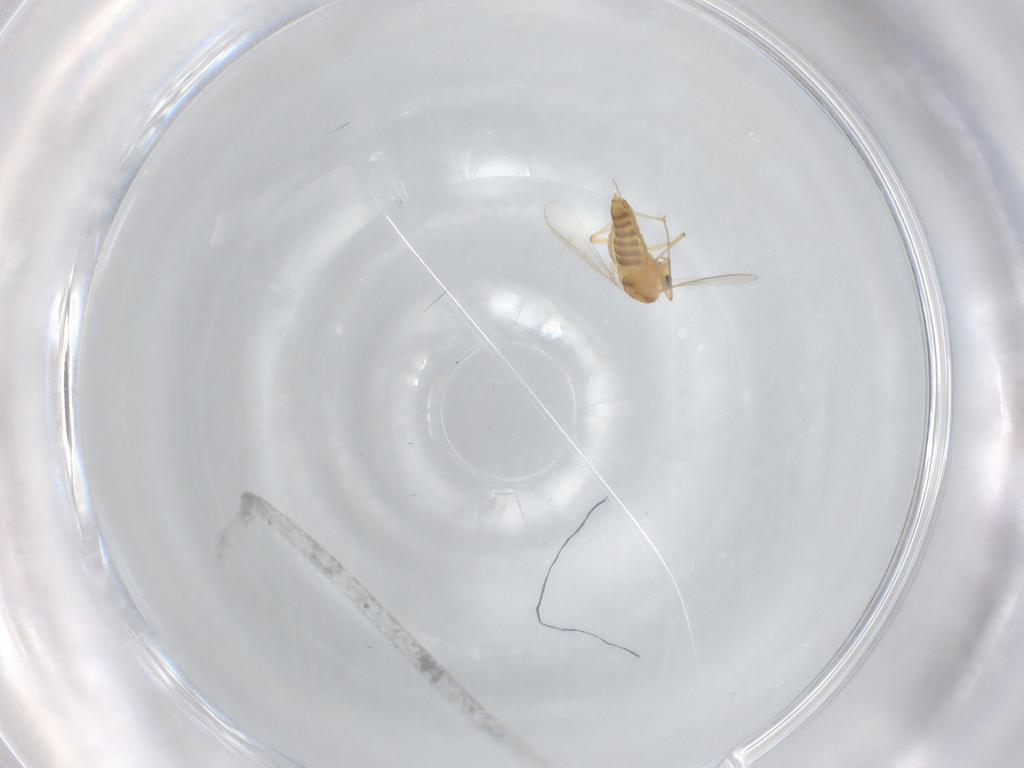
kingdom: Animalia
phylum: Arthropoda
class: Insecta
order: Diptera
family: Chironomidae
